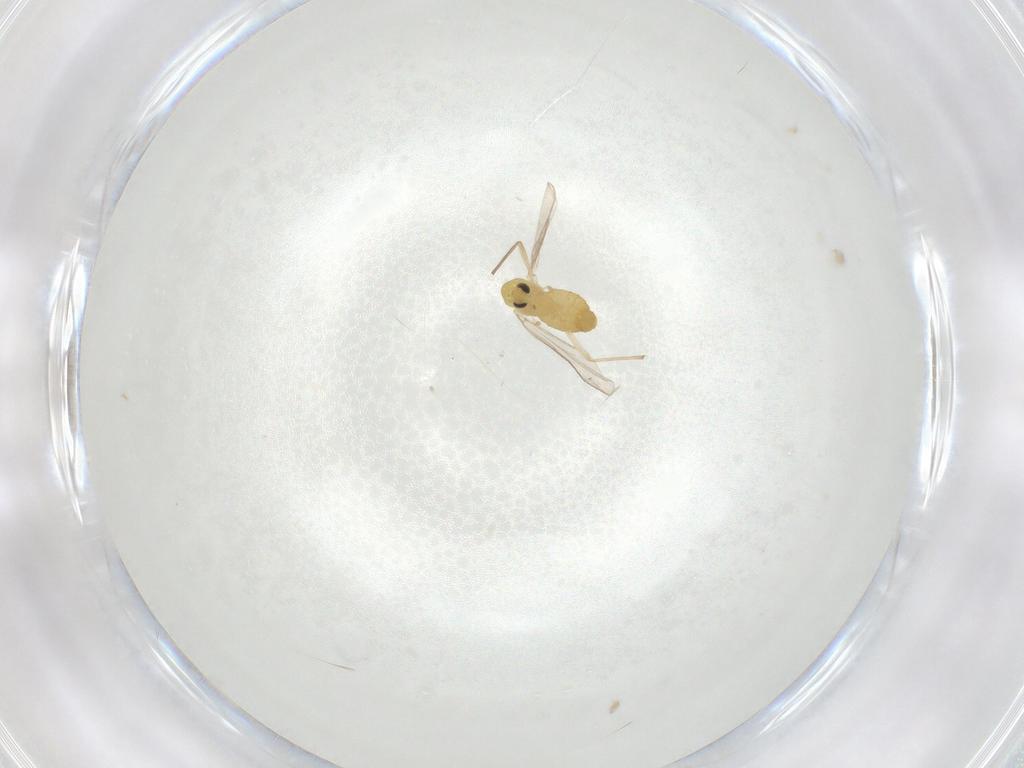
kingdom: Animalia
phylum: Arthropoda
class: Insecta
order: Diptera
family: Chironomidae
